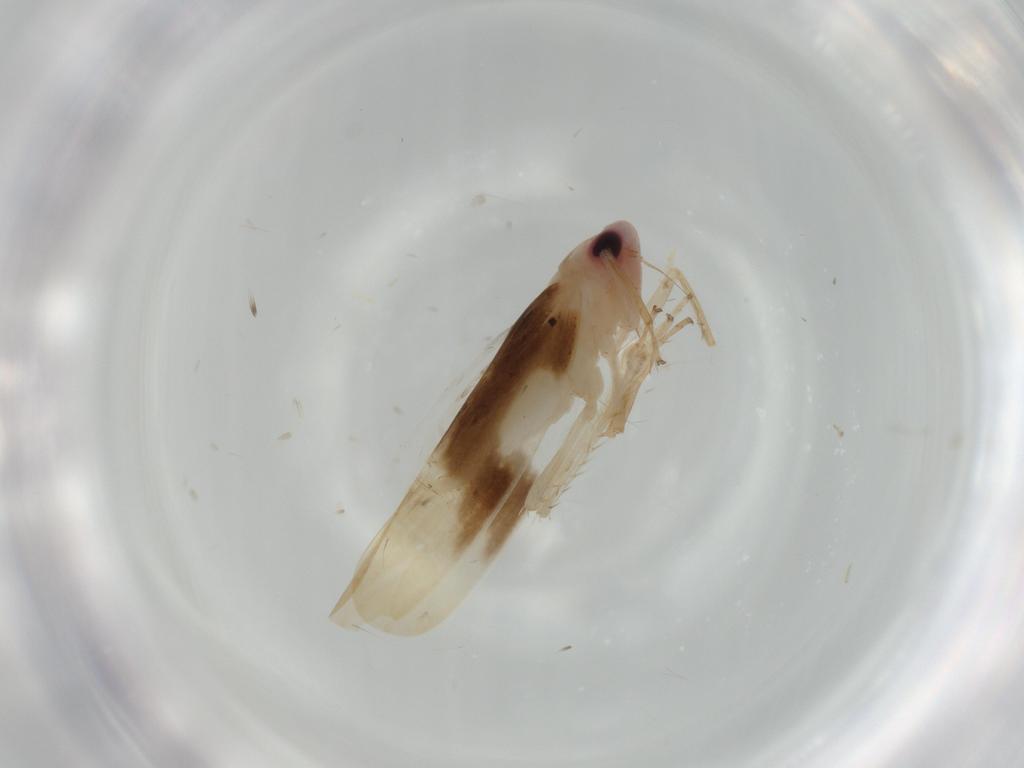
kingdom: Animalia
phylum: Arthropoda
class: Insecta
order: Hemiptera
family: Cicadellidae
